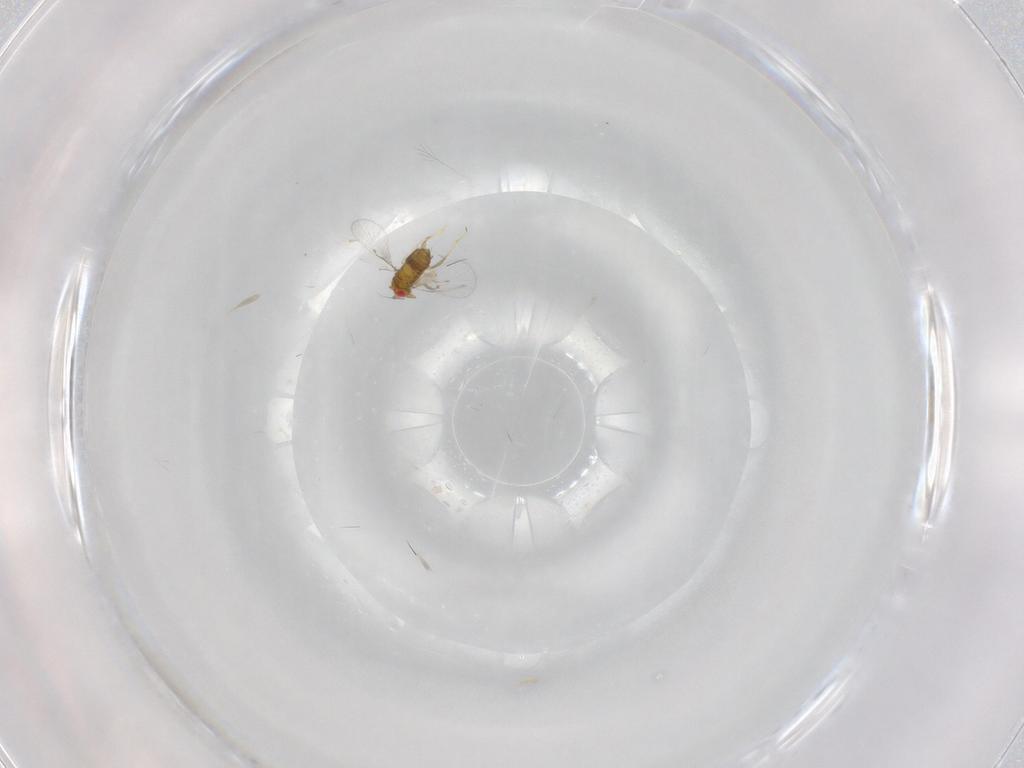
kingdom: Animalia
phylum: Arthropoda
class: Insecta
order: Hymenoptera
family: Trichogrammatidae
